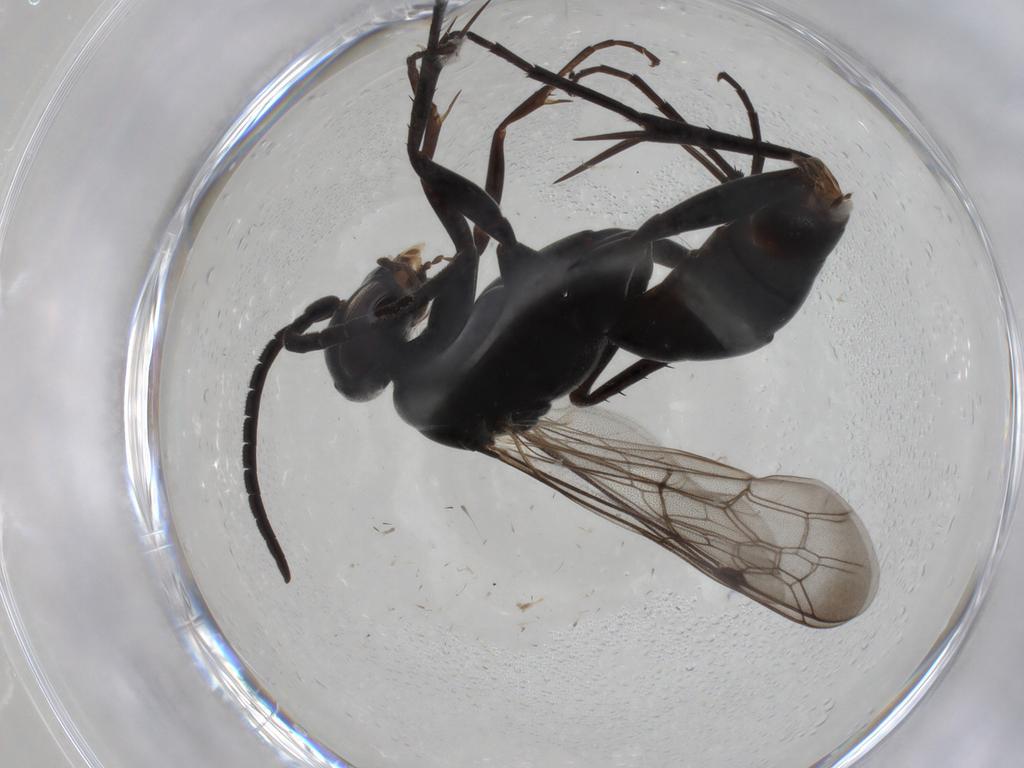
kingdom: Animalia
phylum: Arthropoda
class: Insecta
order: Hymenoptera
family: Pompilidae
